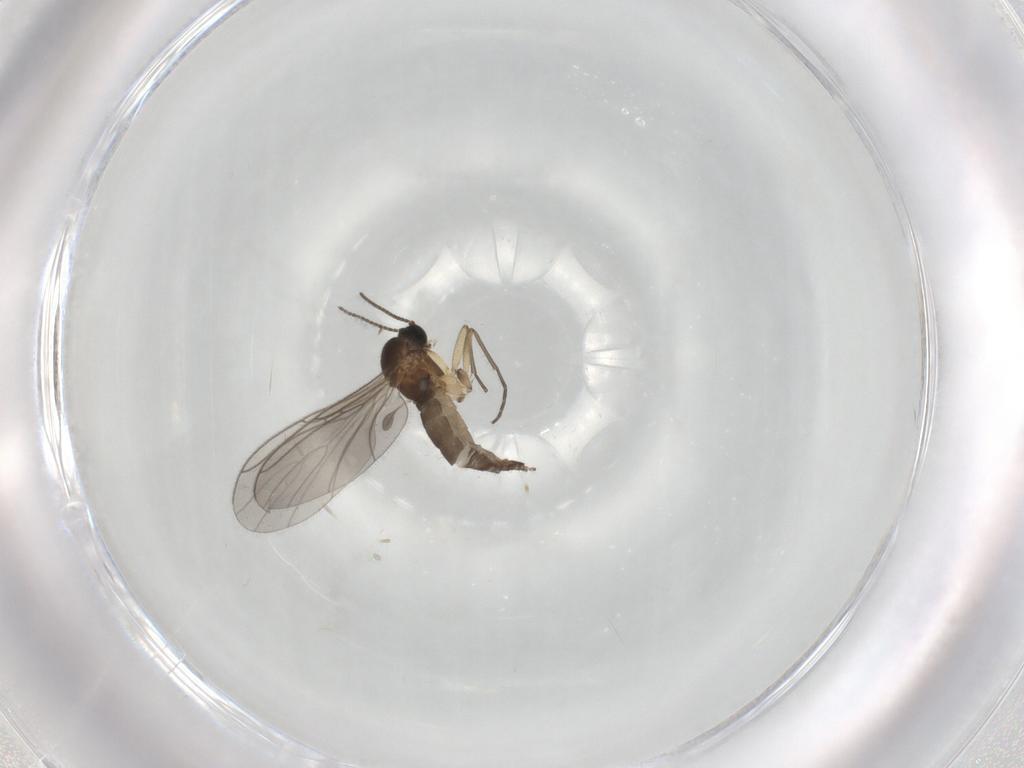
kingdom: Animalia
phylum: Arthropoda
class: Insecta
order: Diptera
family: Sciaridae
